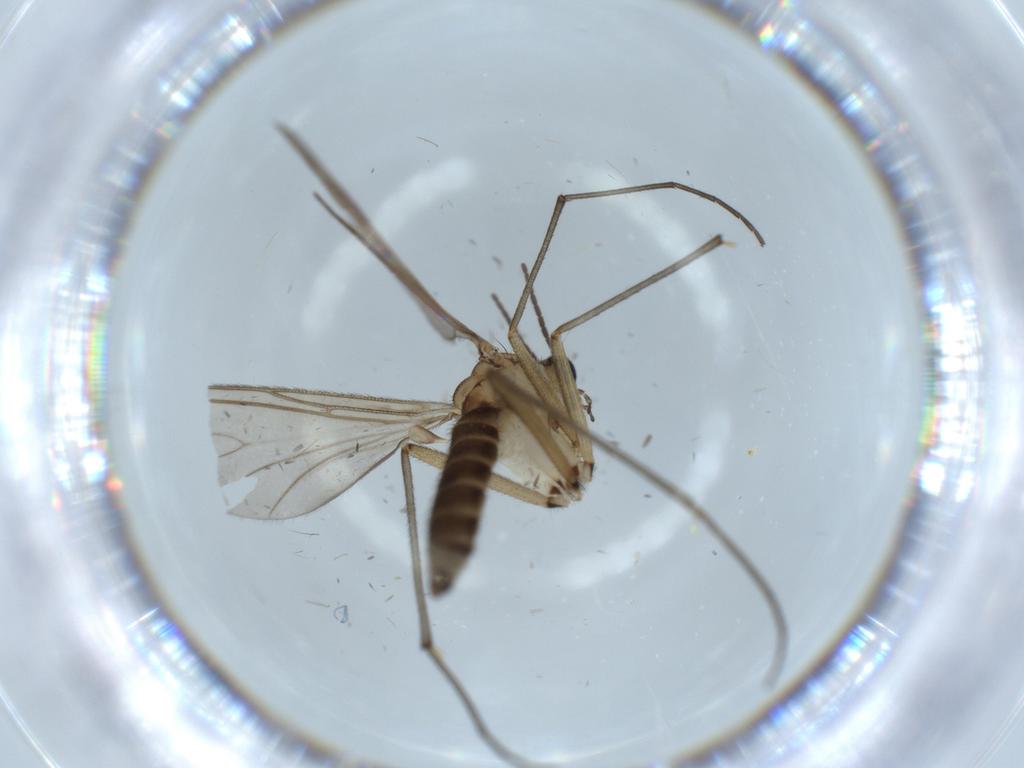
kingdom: Animalia
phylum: Arthropoda
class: Insecta
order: Diptera
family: Sciaridae
